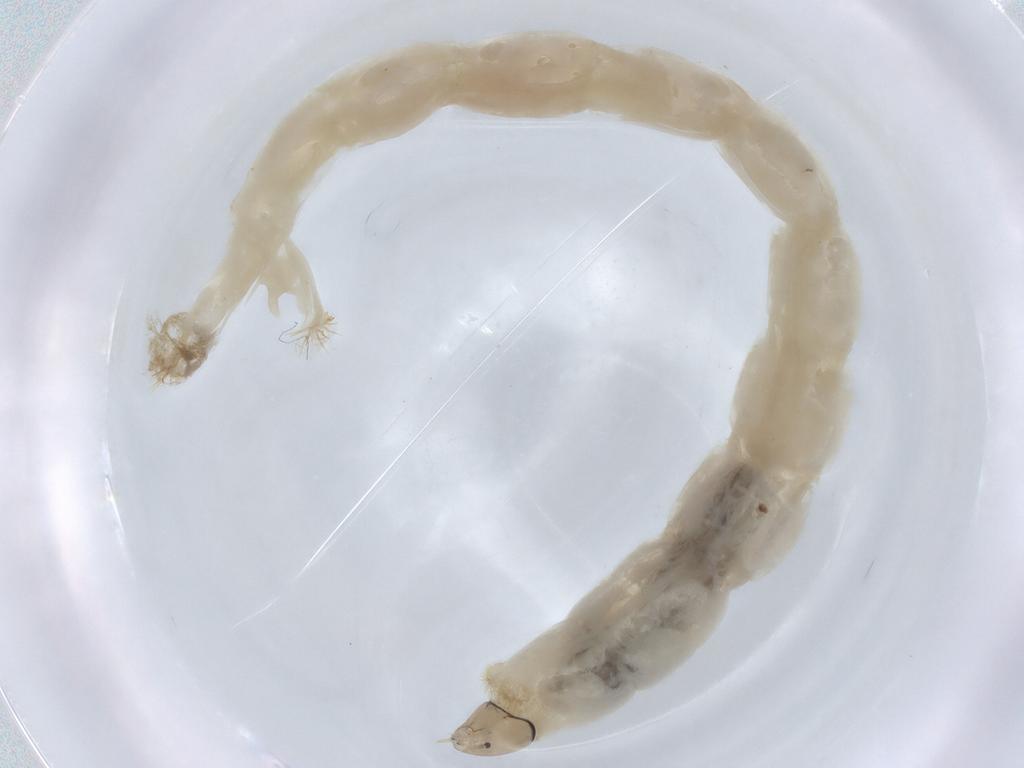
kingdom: Animalia
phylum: Arthropoda
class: Insecta
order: Diptera
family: Chironomidae
